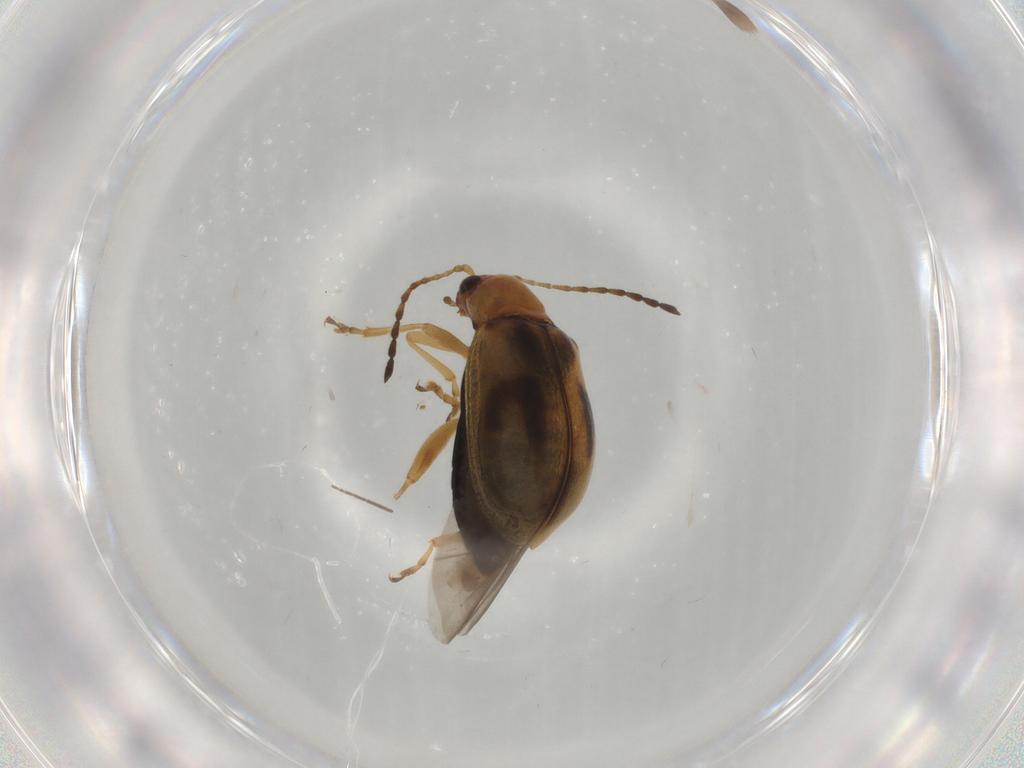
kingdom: Animalia
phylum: Arthropoda
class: Insecta
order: Coleoptera
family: Chrysomelidae
